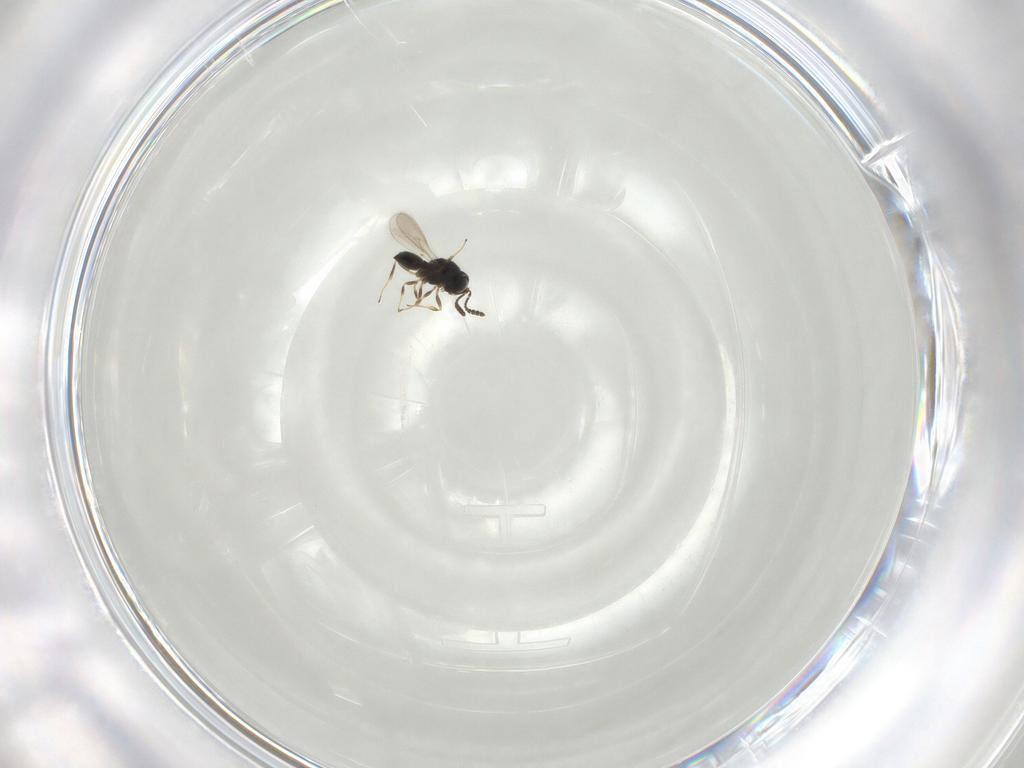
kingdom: Animalia
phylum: Arthropoda
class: Insecta
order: Hymenoptera
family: Scelionidae
